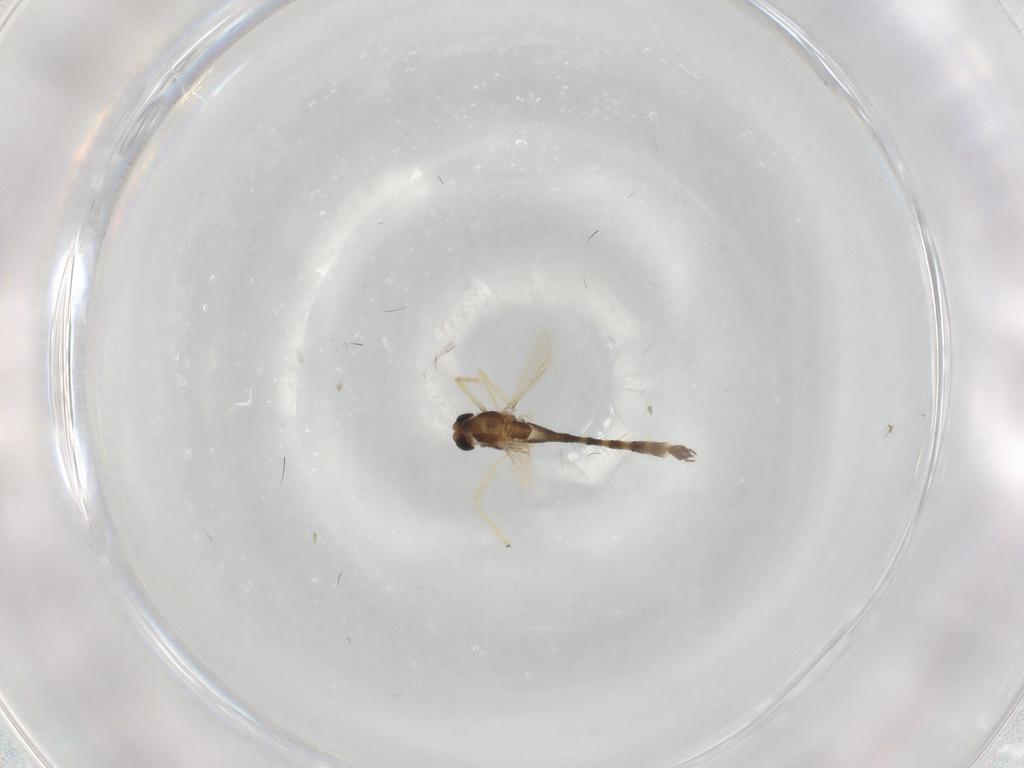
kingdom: Animalia
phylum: Arthropoda
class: Insecta
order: Diptera
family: Chironomidae
